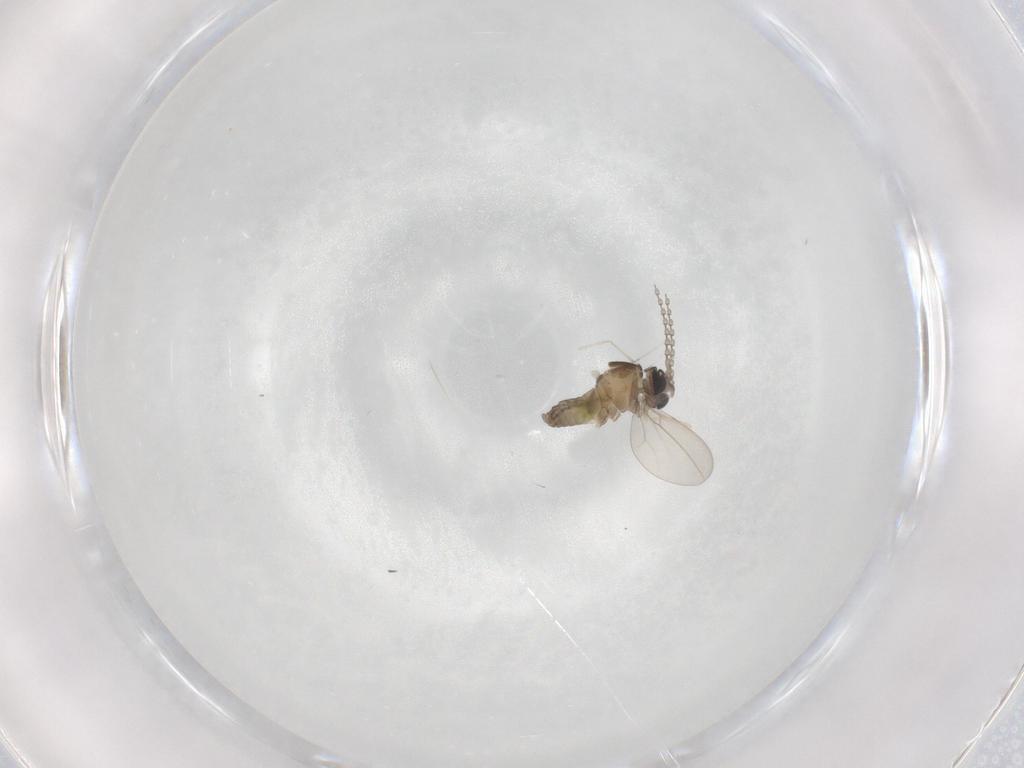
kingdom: Animalia
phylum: Arthropoda
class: Insecta
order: Diptera
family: Cecidomyiidae
